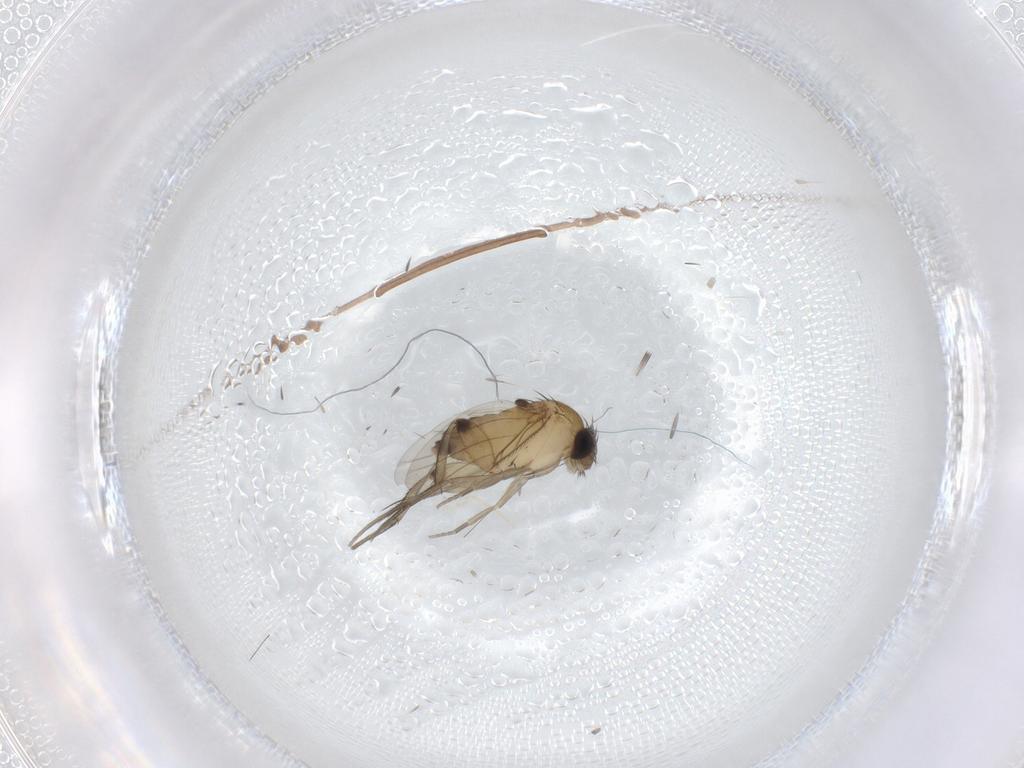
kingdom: Animalia
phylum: Arthropoda
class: Insecta
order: Diptera
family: Phoridae
